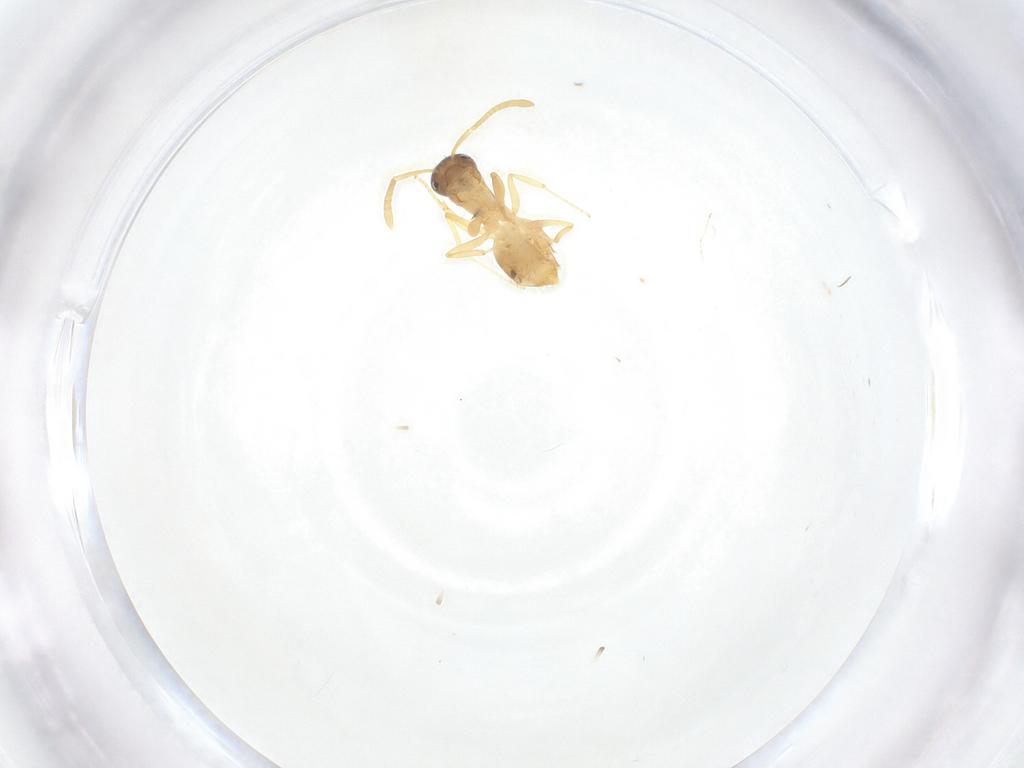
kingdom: Animalia
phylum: Arthropoda
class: Insecta
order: Hymenoptera
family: Formicidae
